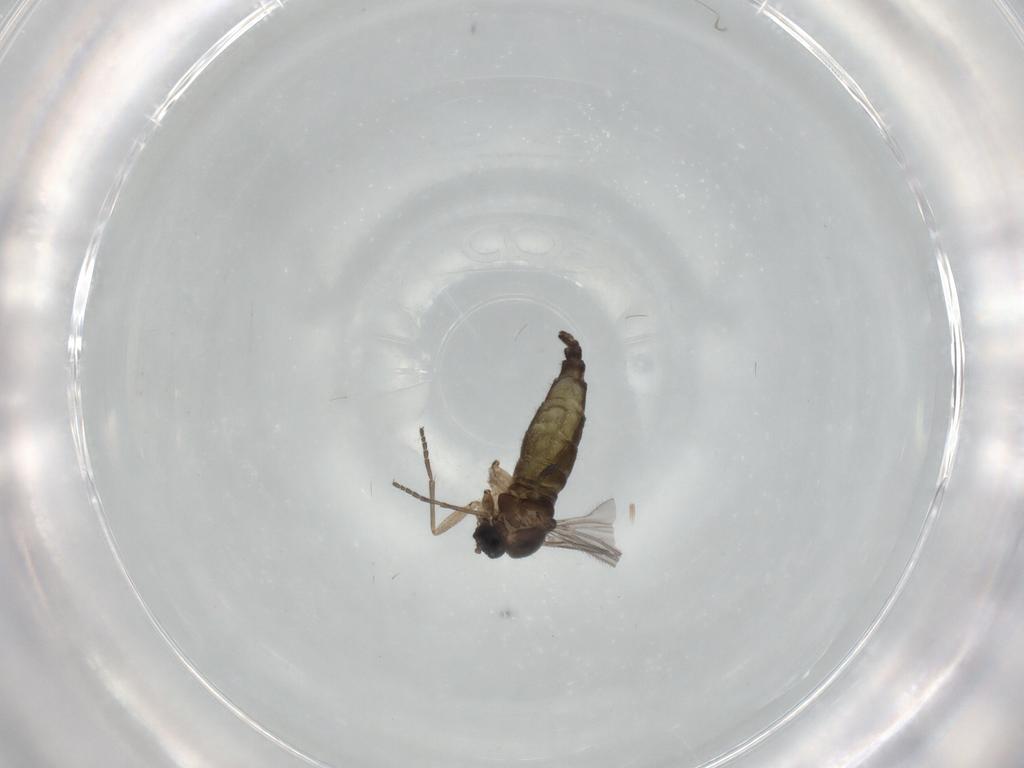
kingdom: Animalia
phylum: Arthropoda
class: Insecta
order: Diptera
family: Sciaridae
